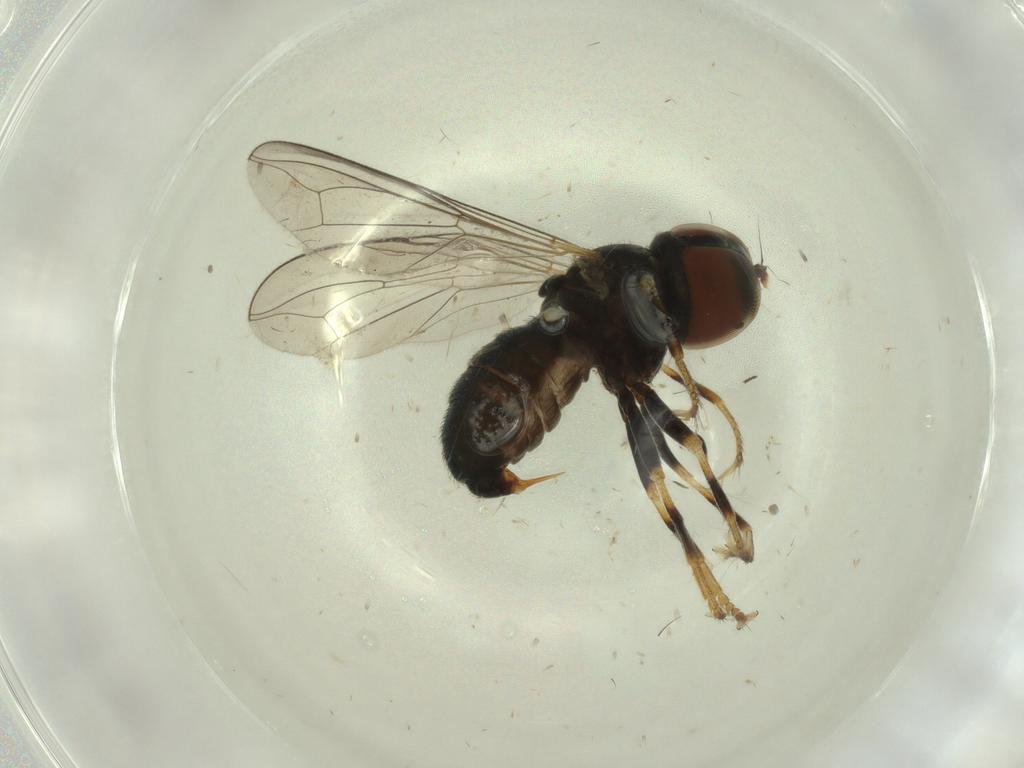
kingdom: Animalia
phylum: Arthropoda
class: Insecta
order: Diptera
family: Pipunculidae
